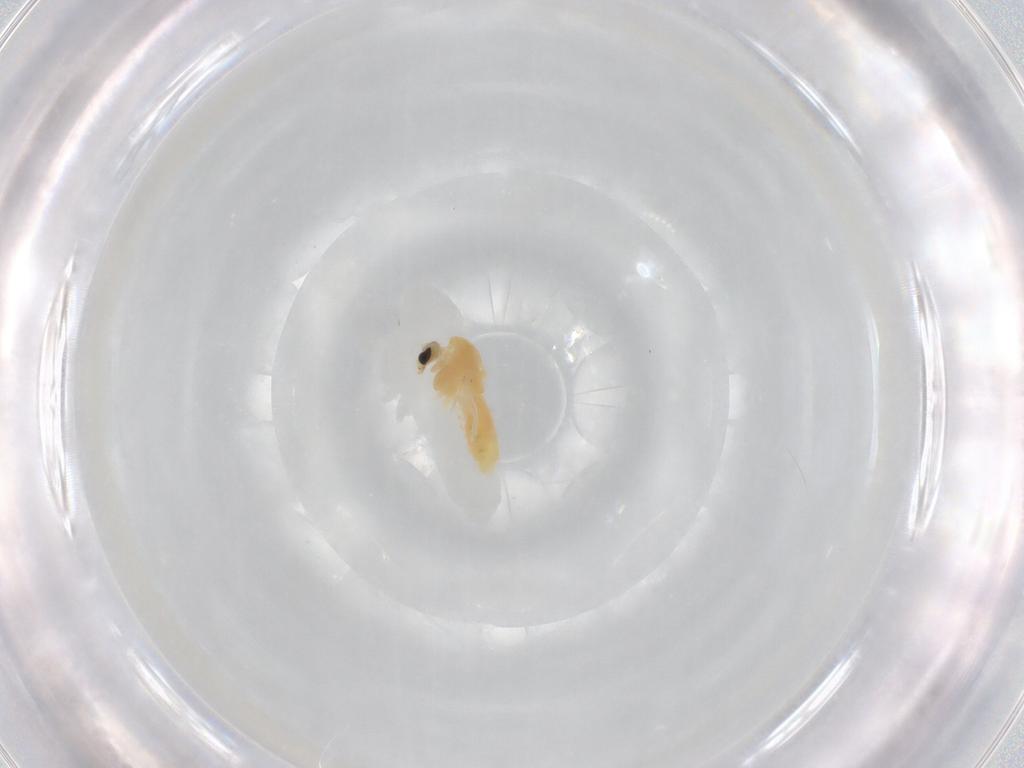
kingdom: Animalia
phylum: Arthropoda
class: Insecta
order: Diptera
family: Chironomidae
